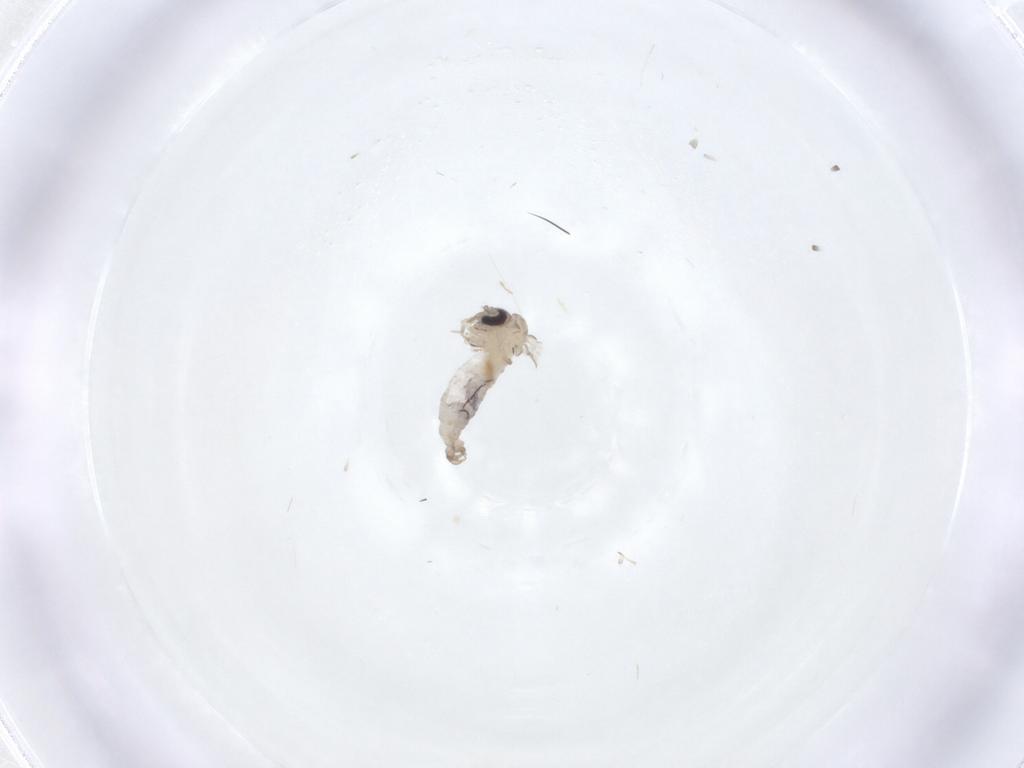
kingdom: Animalia
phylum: Arthropoda
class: Insecta
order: Diptera
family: Psychodidae
